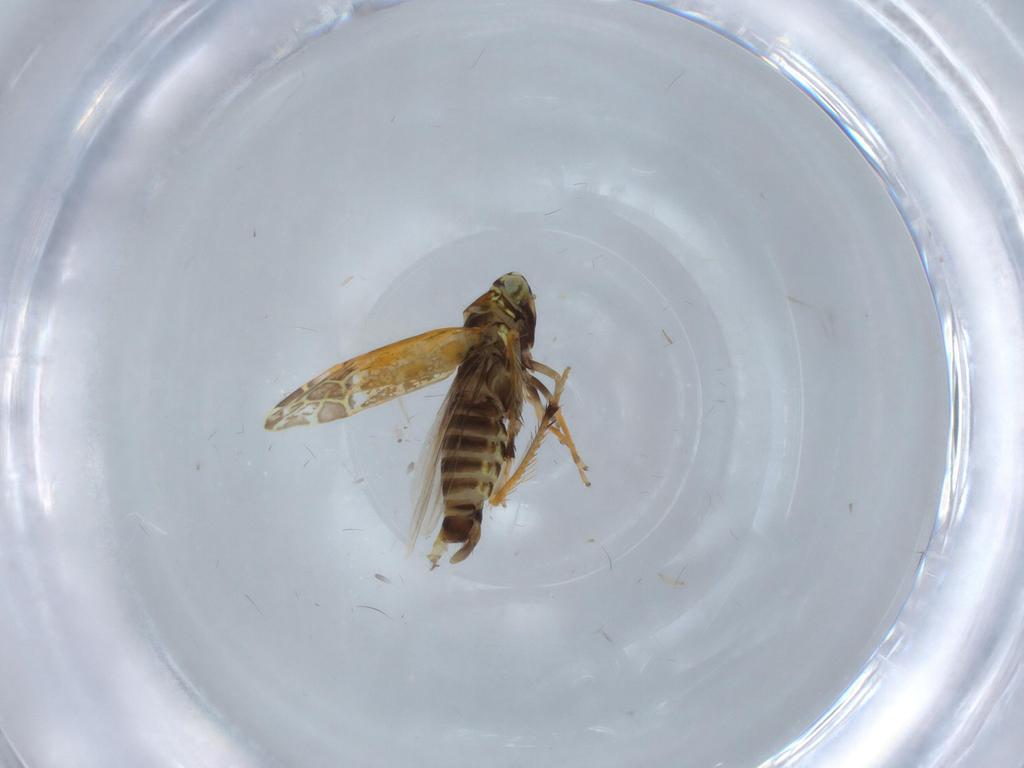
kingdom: Animalia
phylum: Arthropoda
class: Insecta
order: Hemiptera
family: Cicadellidae
